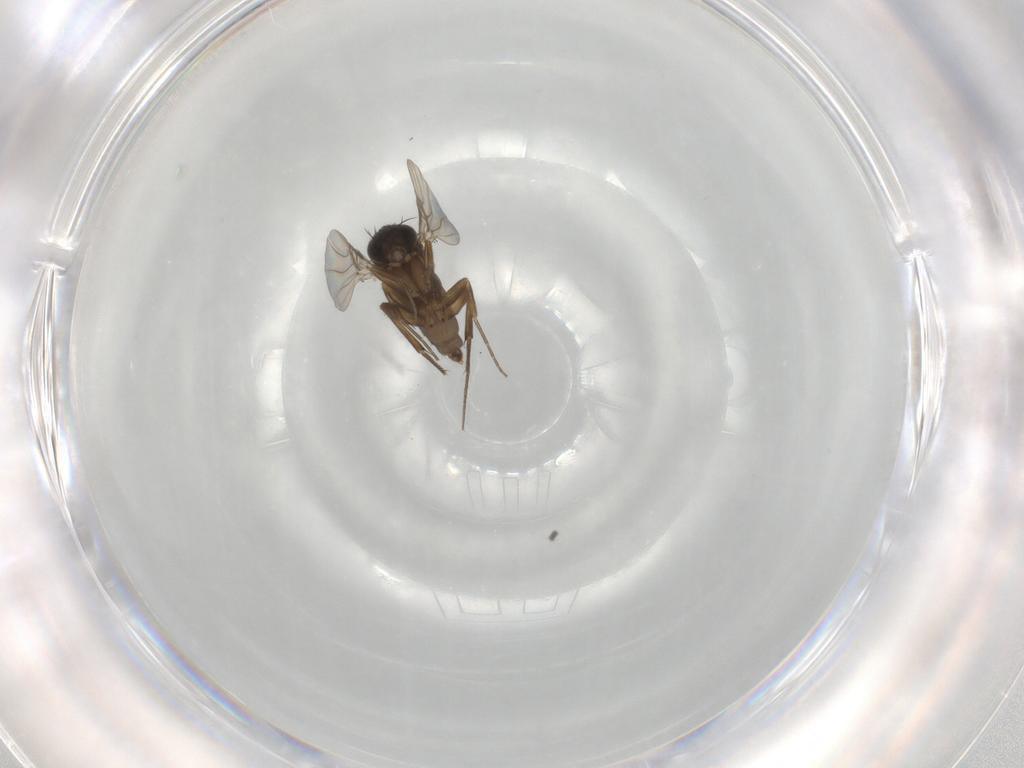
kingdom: Animalia
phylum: Arthropoda
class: Insecta
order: Diptera
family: Phoridae
